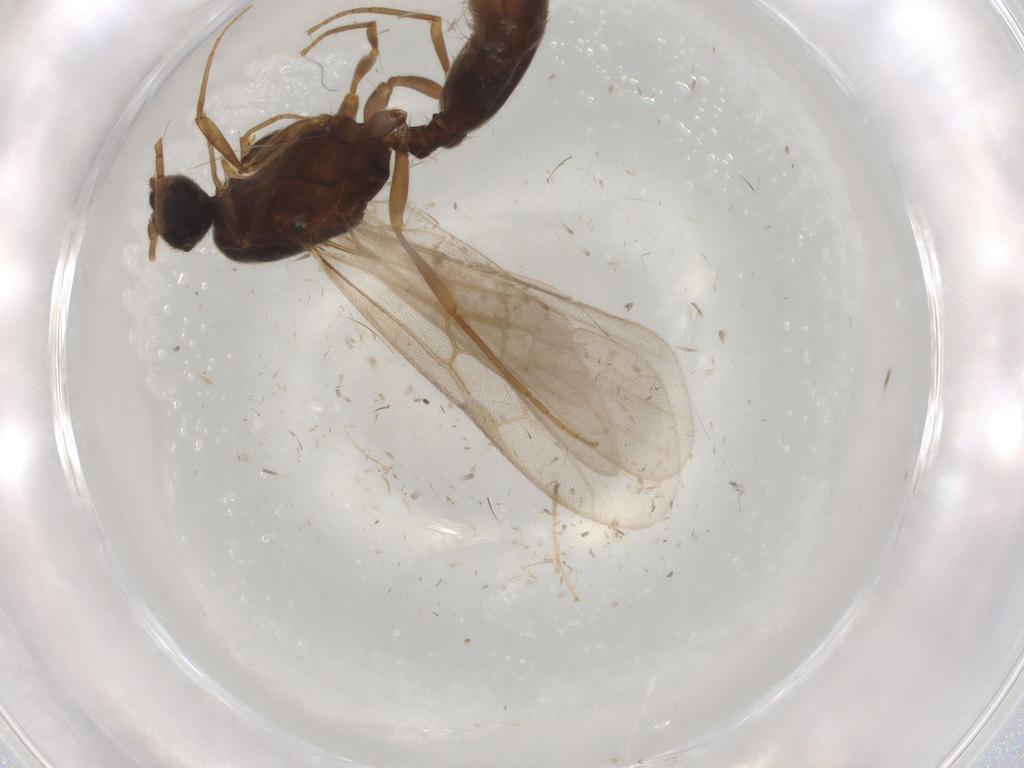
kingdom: Animalia
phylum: Arthropoda
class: Insecta
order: Hymenoptera
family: Formicidae
